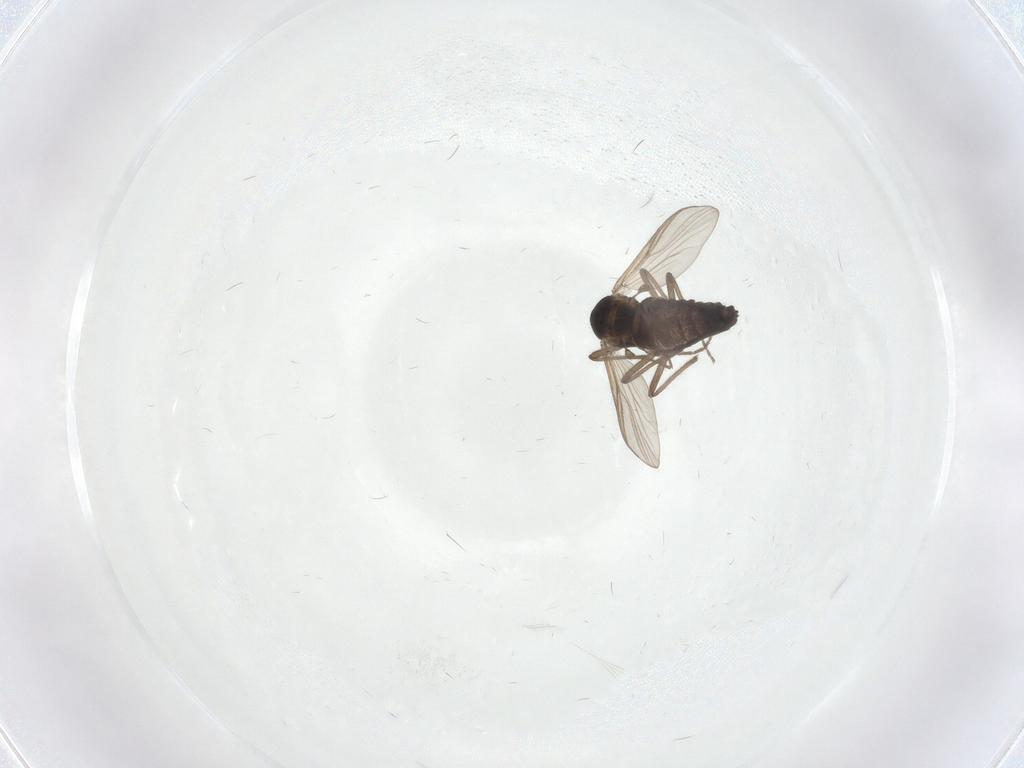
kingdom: Animalia
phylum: Arthropoda
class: Insecta
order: Diptera
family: Chironomidae
